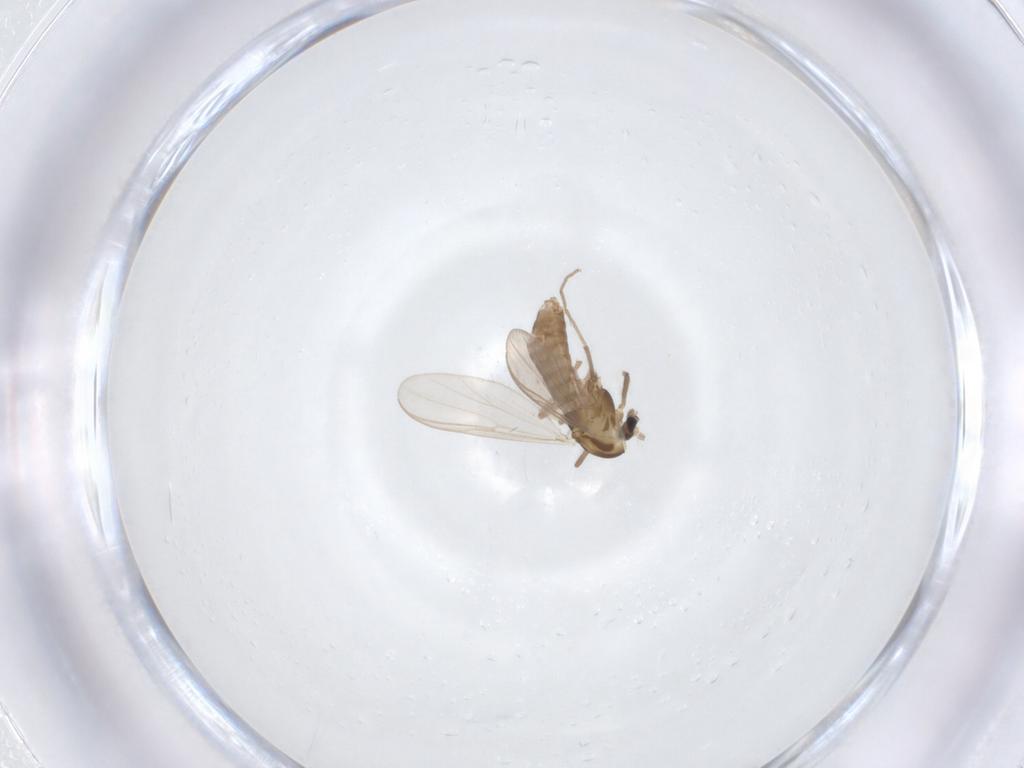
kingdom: Animalia
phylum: Arthropoda
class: Insecta
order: Diptera
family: Chironomidae
